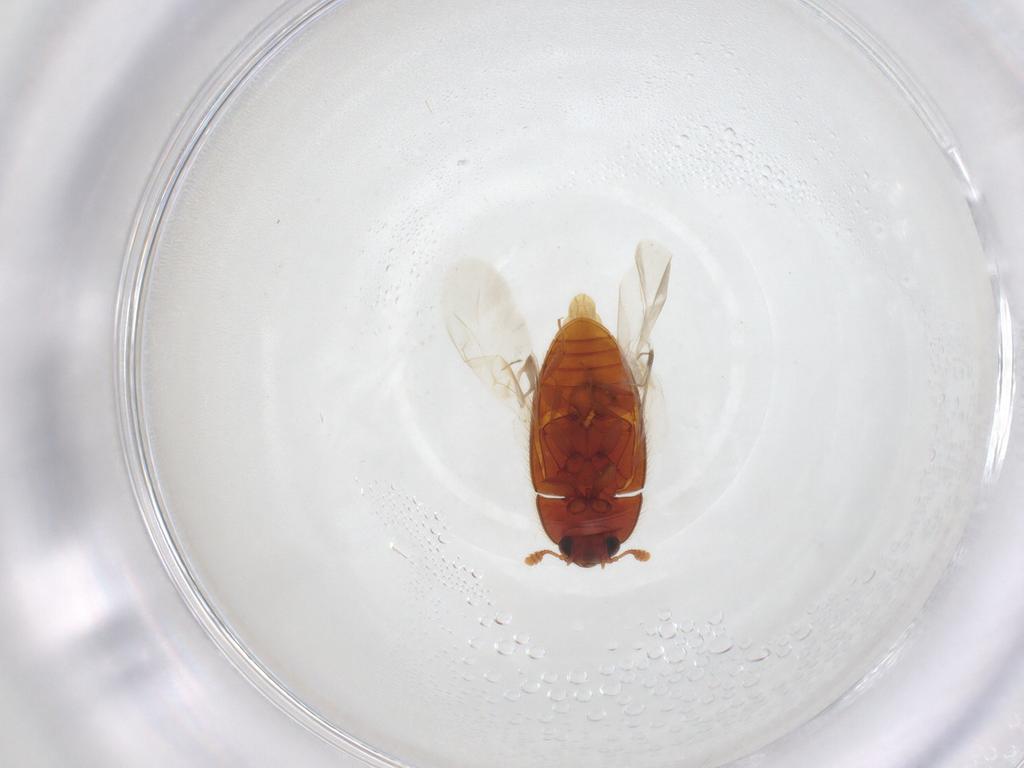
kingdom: Animalia
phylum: Arthropoda
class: Insecta
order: Coleoptera
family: Biphyllidae
